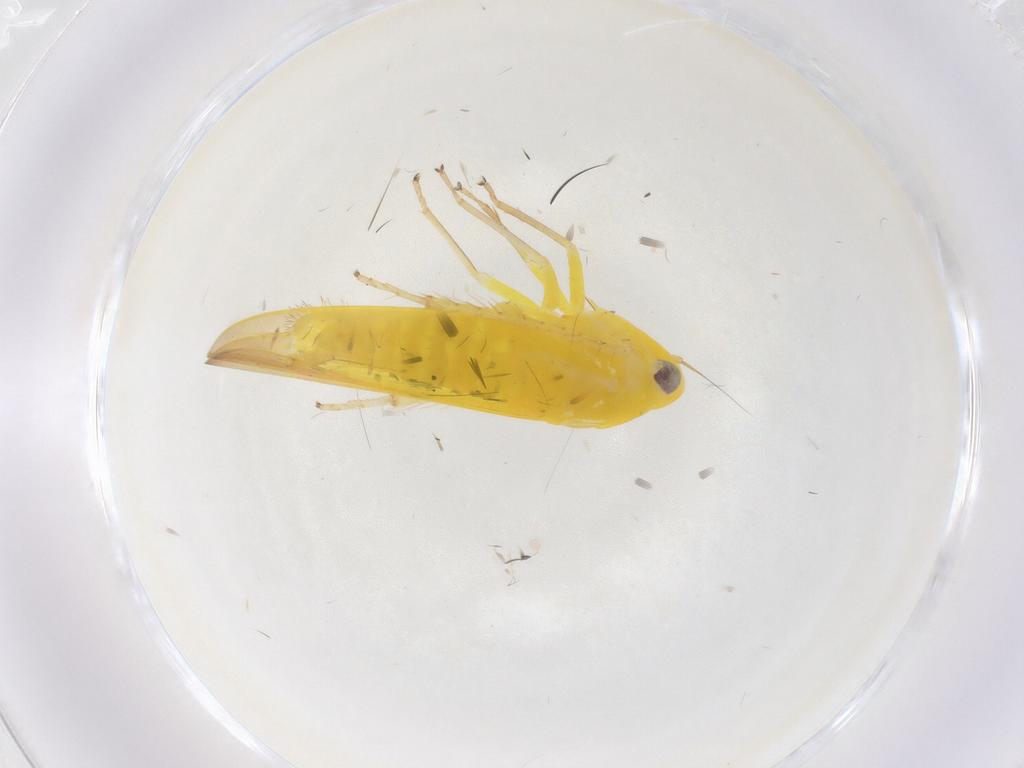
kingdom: Animalia
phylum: Arthropoda
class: Insecta
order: Hemiptera
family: Cicadellidae
